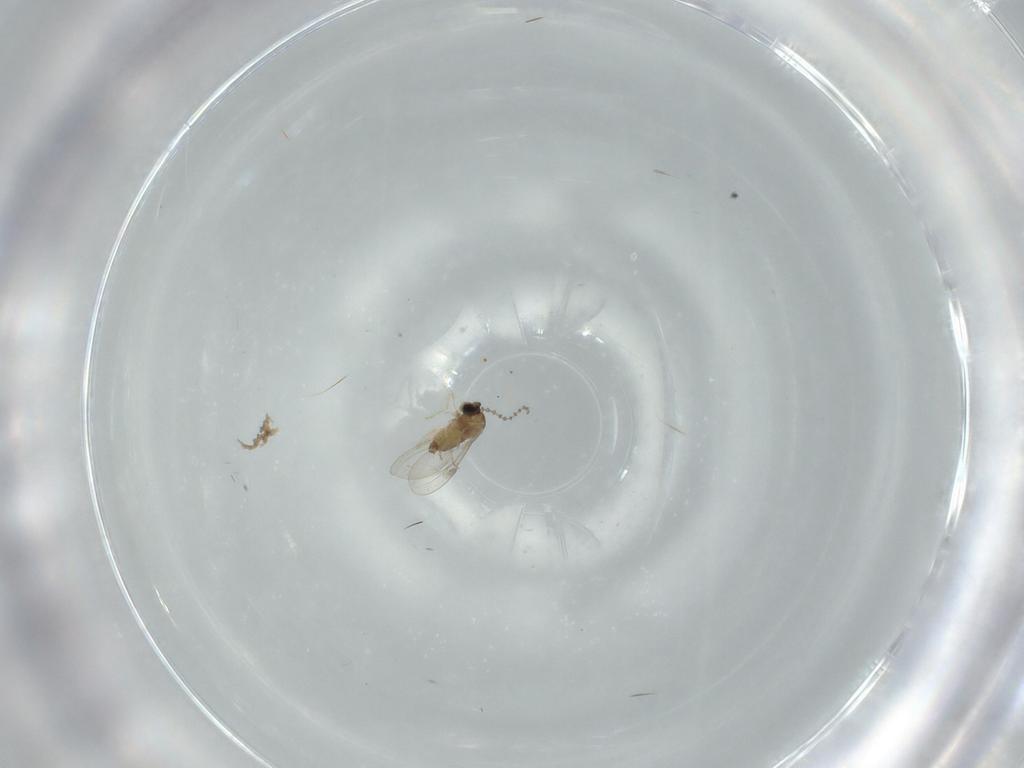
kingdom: Animalia
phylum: Arthropoda
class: Insecta
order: Diptera
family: Cecidomyiidae
